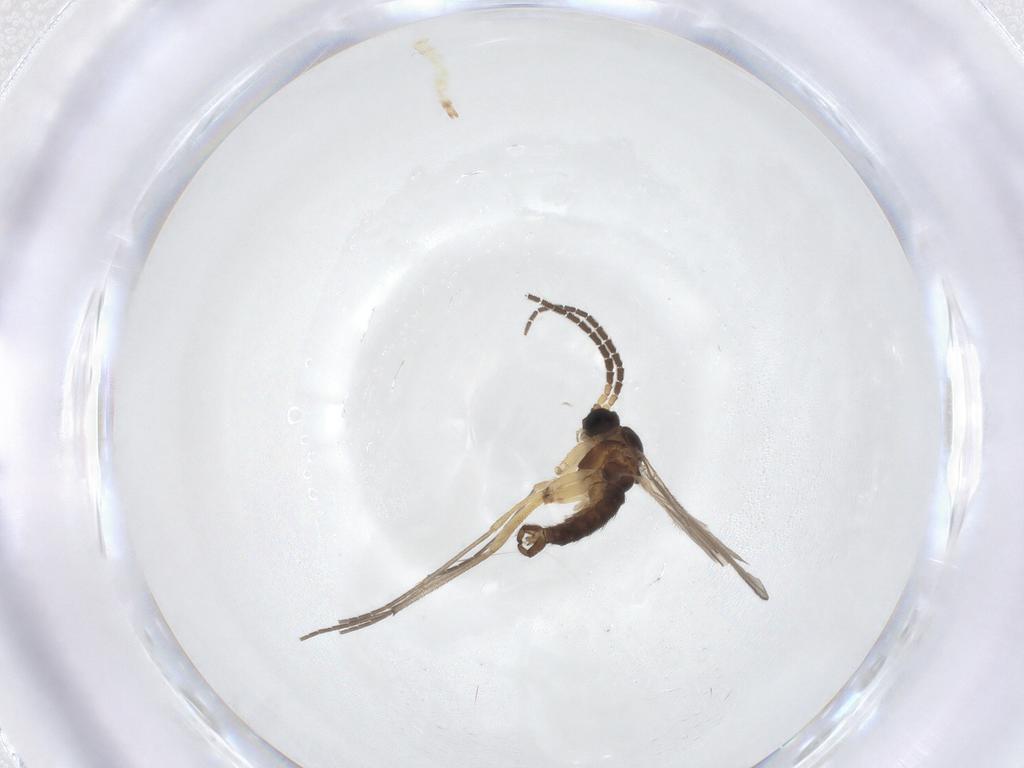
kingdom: Animalia
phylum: Arthropoda
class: Insecta
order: Diptera
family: Sciaridae
